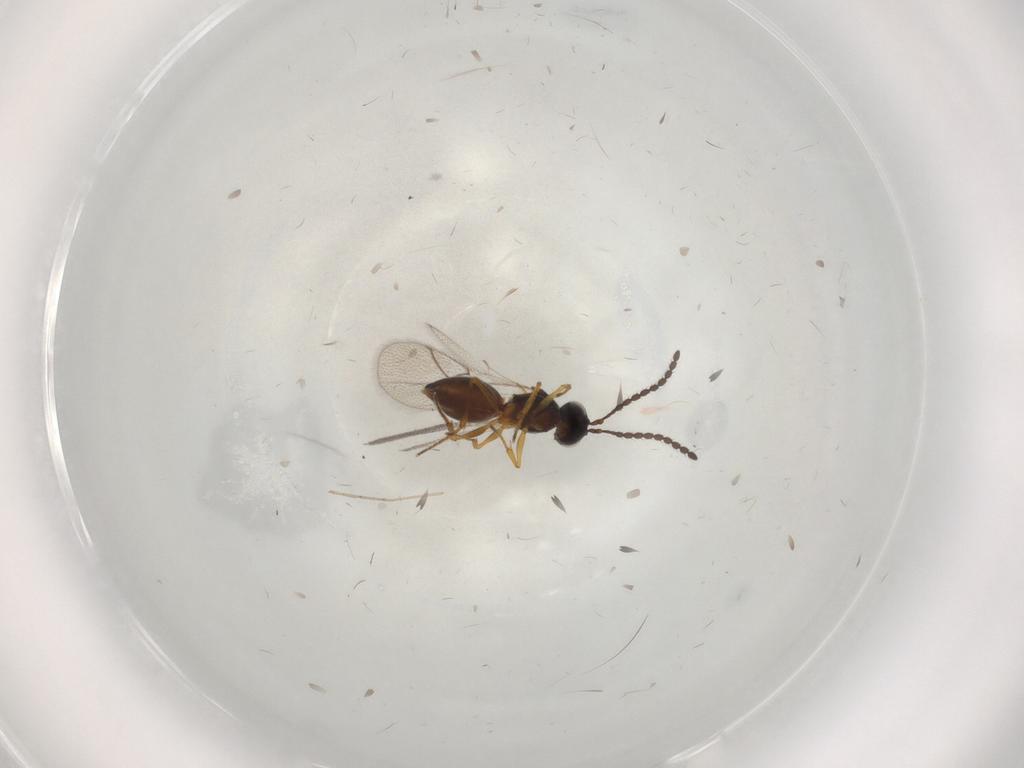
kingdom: Animalia
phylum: Arthropoda
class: Insecta
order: Hymenoptera
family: Figitidae
